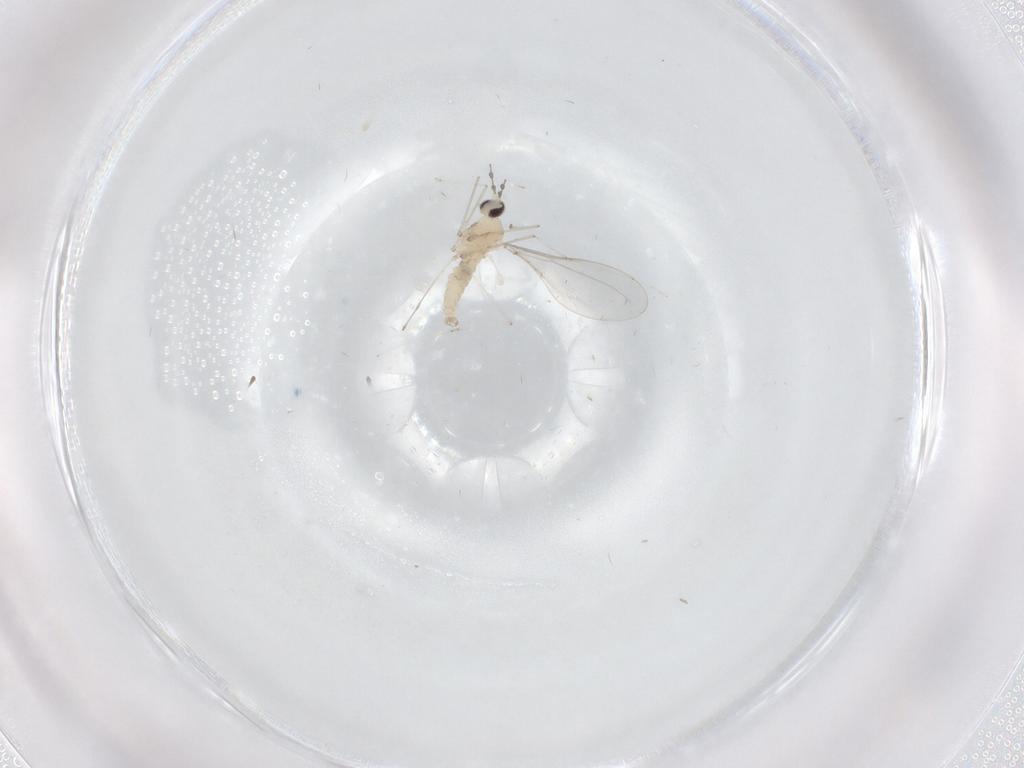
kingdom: Animalia
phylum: Arthropoda
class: Insecta
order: Diptera
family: Cecidomyiidae
